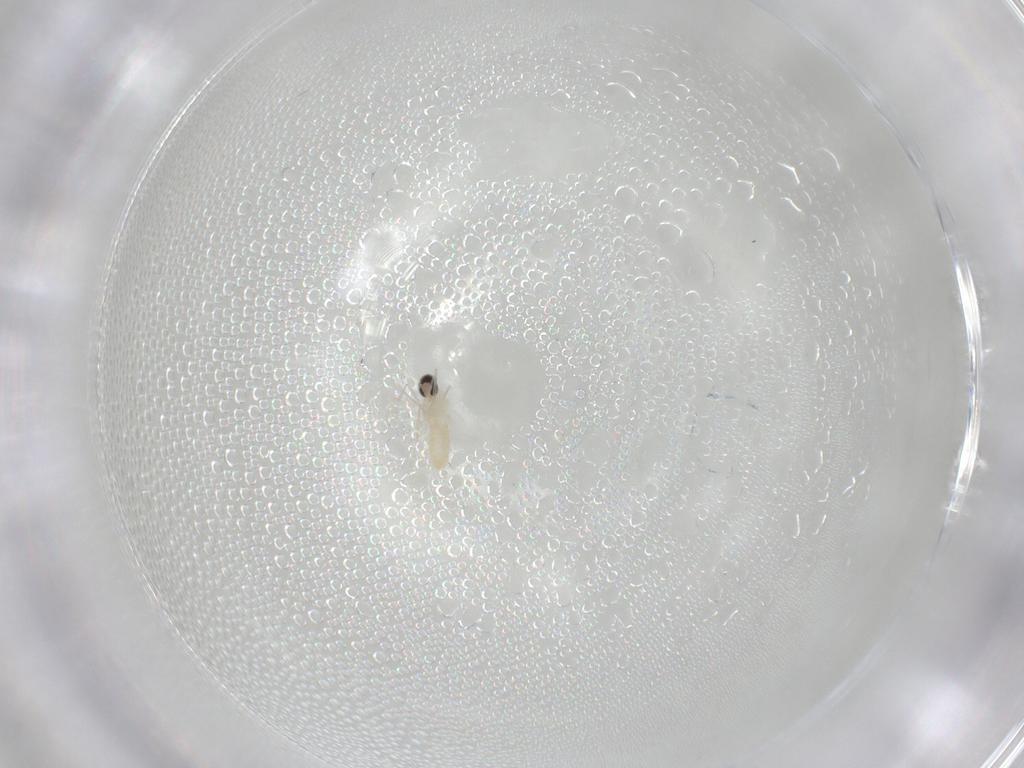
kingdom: Animalia
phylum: Arthropoda
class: Insecta
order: Diptera
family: Cecidomyiidae
